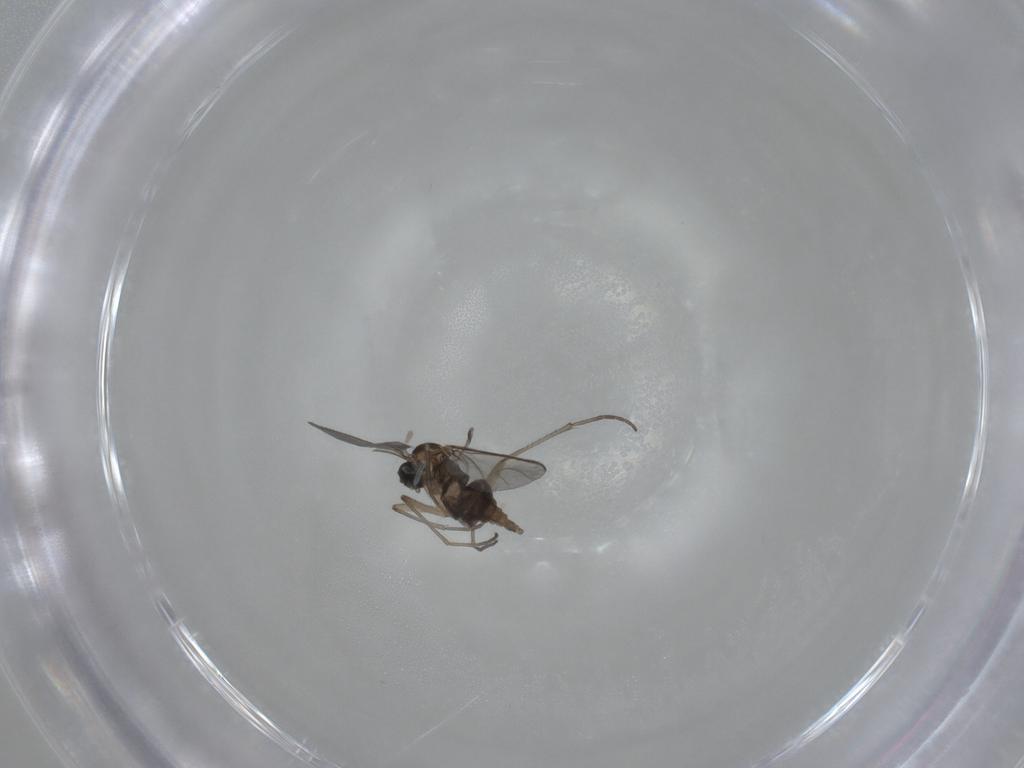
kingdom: Animalia
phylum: Arthropoda
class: Insecta
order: Diptera
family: Sciaridae
